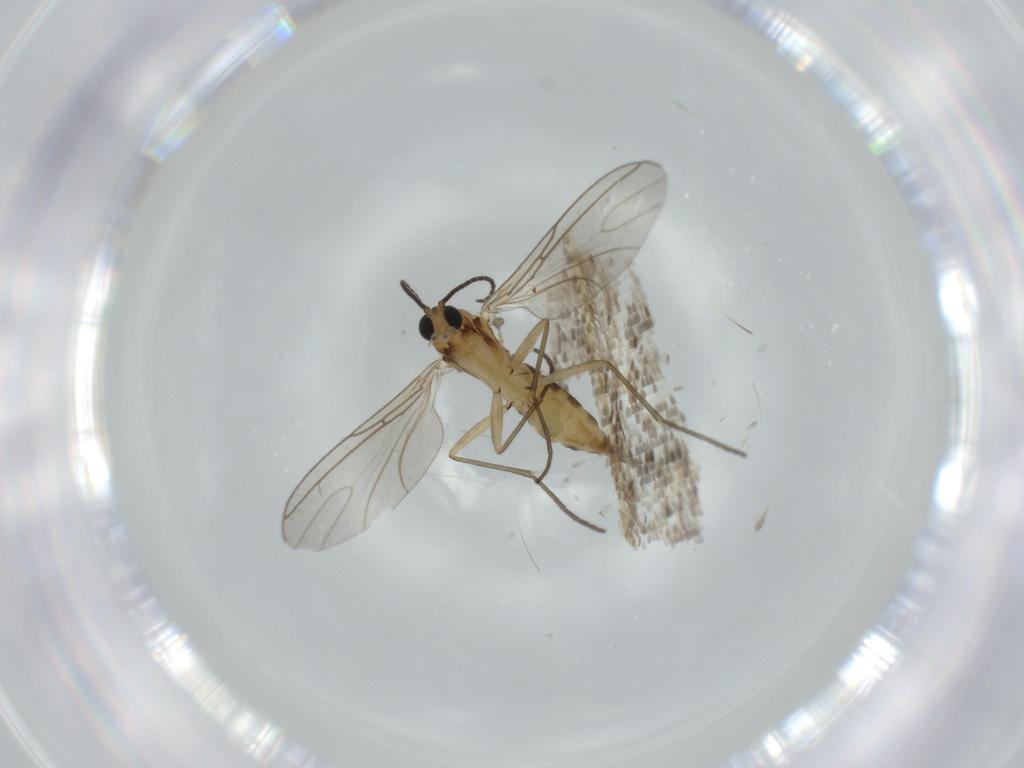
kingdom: Animalia
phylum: Arthropoda
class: Insecta
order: Diptera
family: Sciaridae
